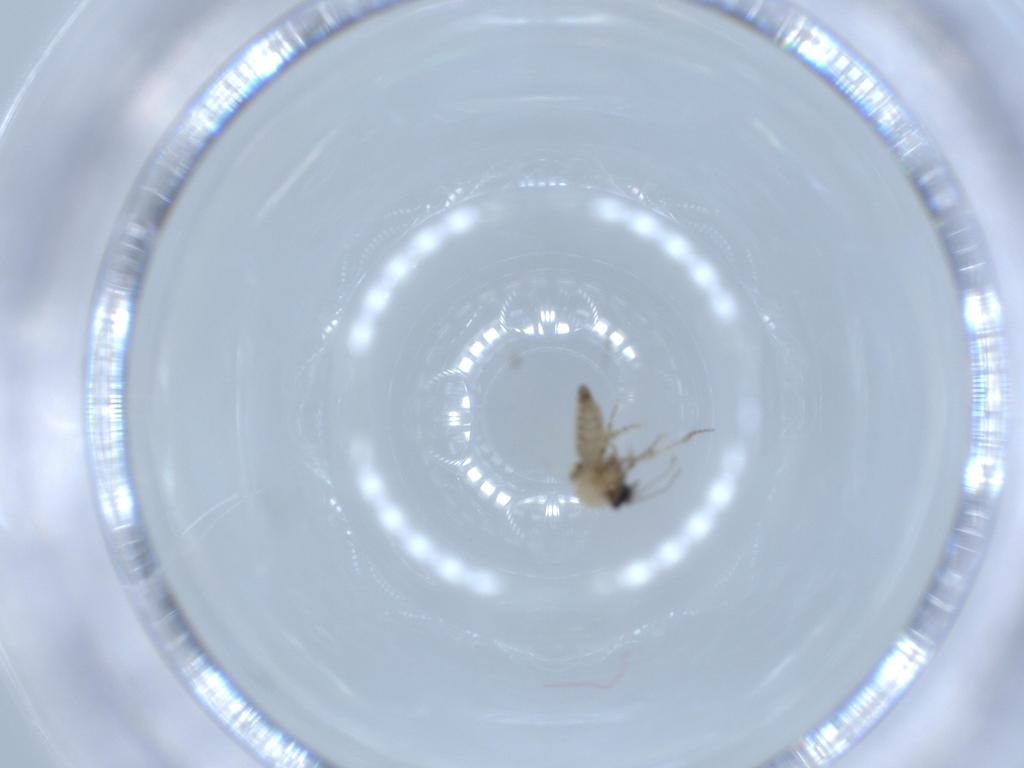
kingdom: Animalia
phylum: Arthropoda
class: Insecta
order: Diptera
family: Ceratopogonidae
